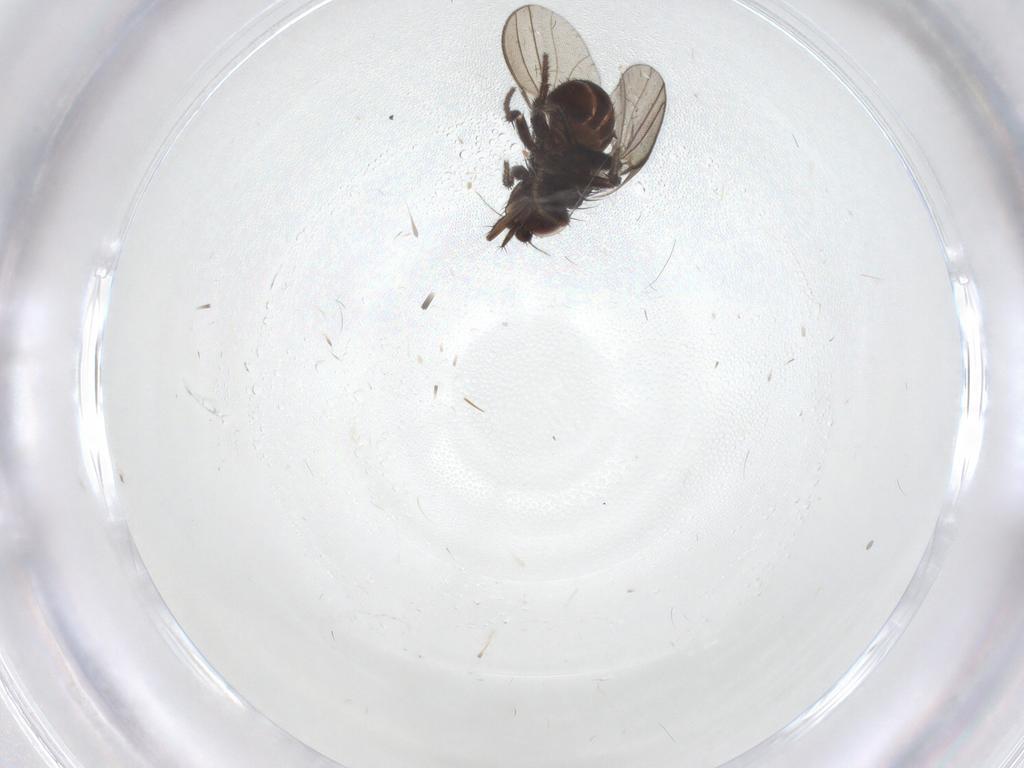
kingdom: Animalia
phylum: Arthropoda
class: Insecta
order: Diptera
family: Milichiidae
